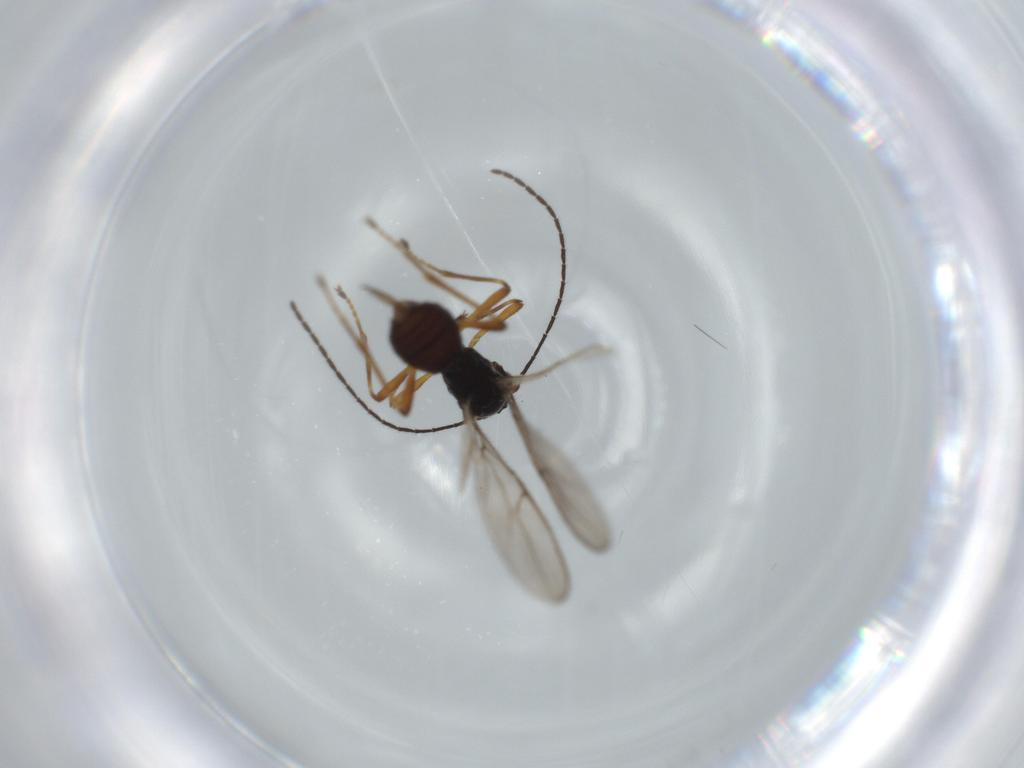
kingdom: Animalia
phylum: Arthropoda
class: Insecta
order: Hymenoptera
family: Braconidae
